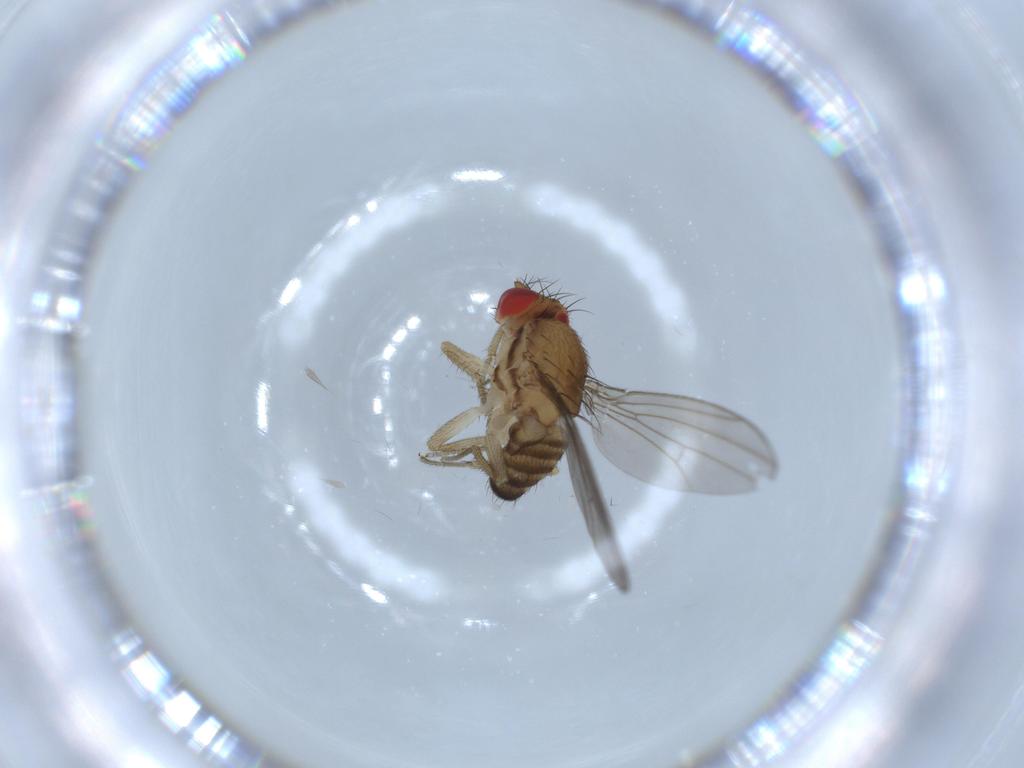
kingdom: Animalia
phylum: Arthropoda
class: Insecta
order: Diptera
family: Drosophilidae
